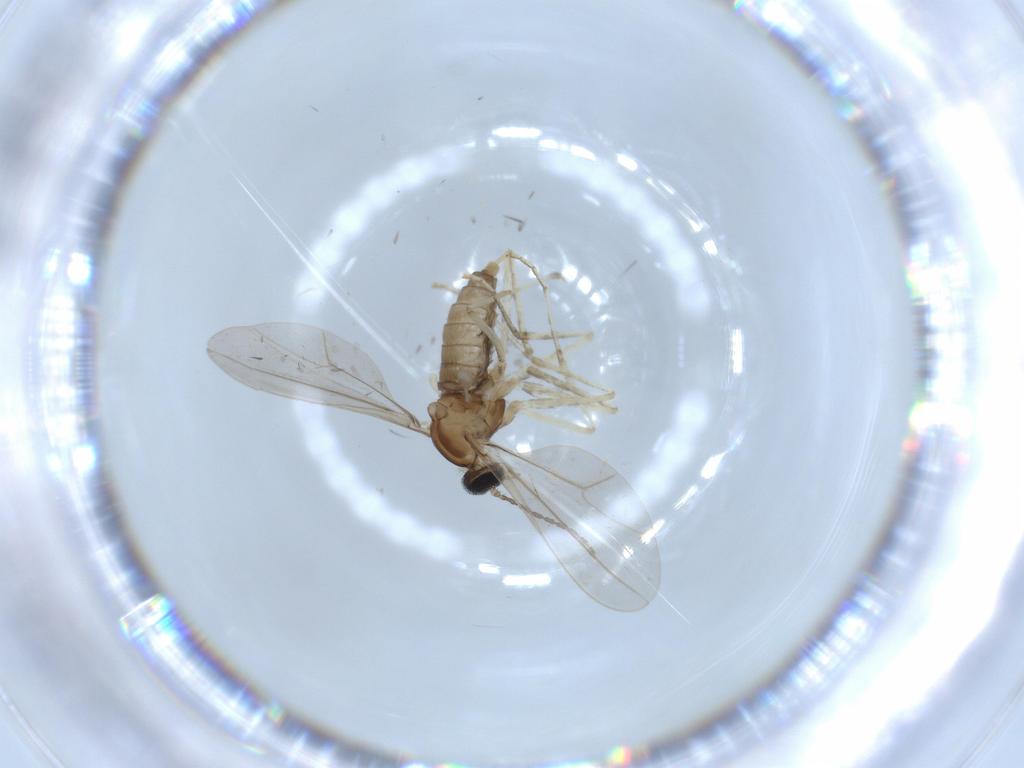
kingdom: Animalia
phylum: Arthropoda
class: Insecta
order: Diptera
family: Cecidomyiidae
